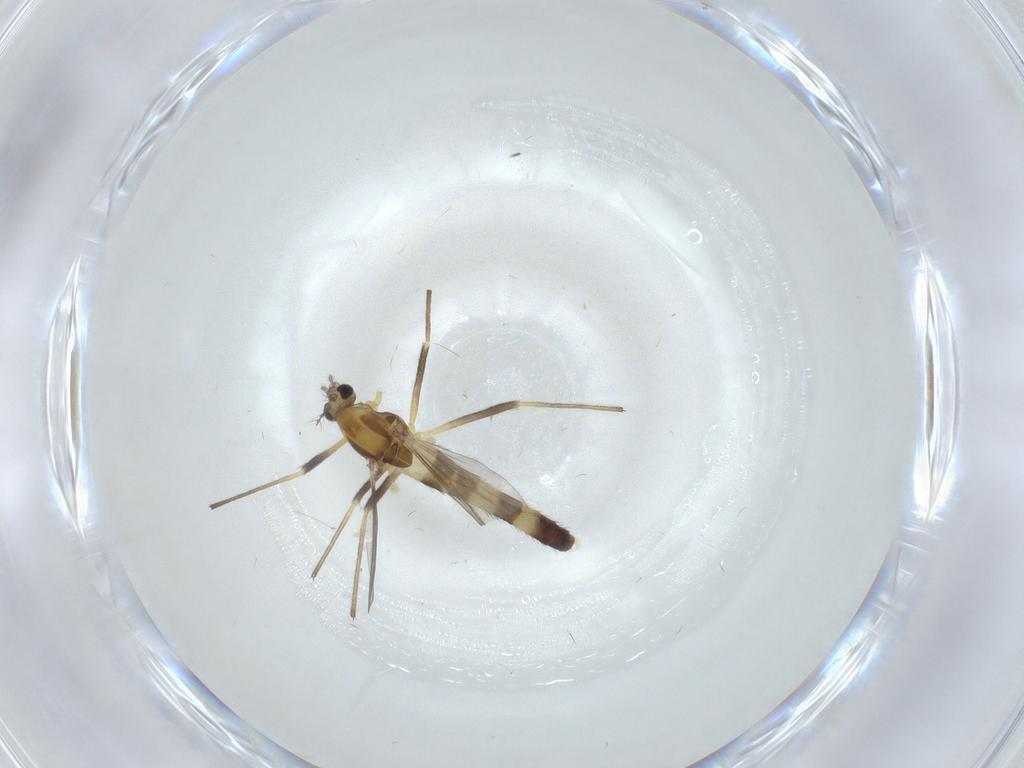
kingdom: Animalia
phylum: Arthropoda
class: Insecta
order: Diptera
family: Chironomidae
